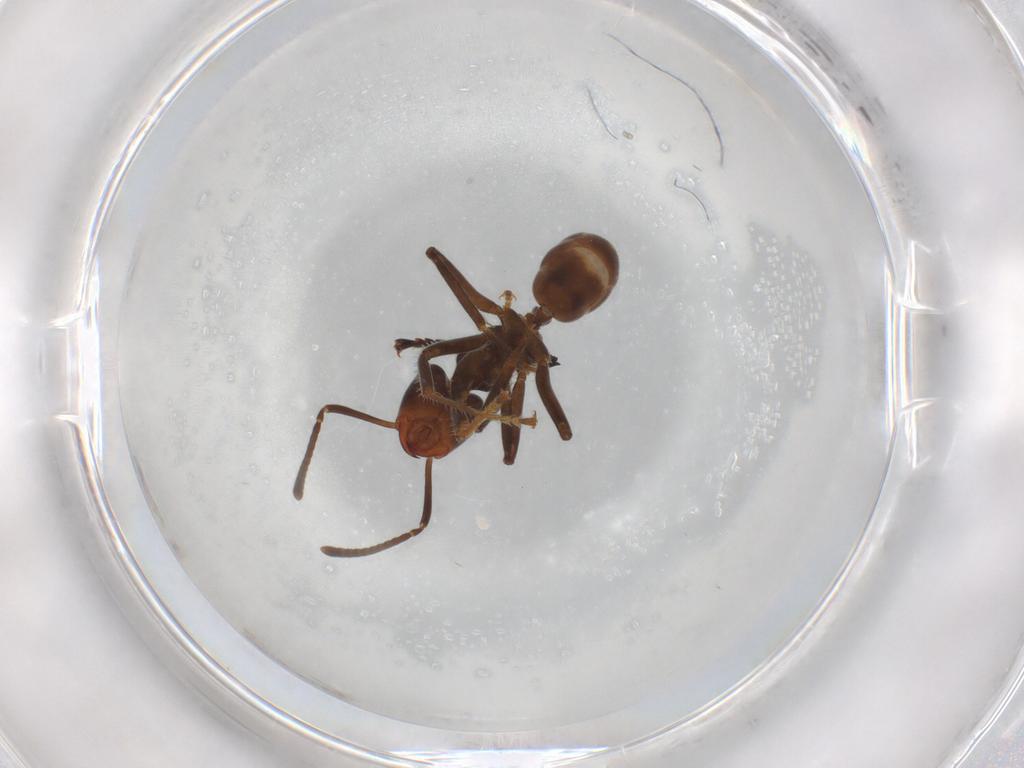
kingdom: Animalia
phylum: Arthropoda
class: Insecta
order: Hymenoptera
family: Formicidae
